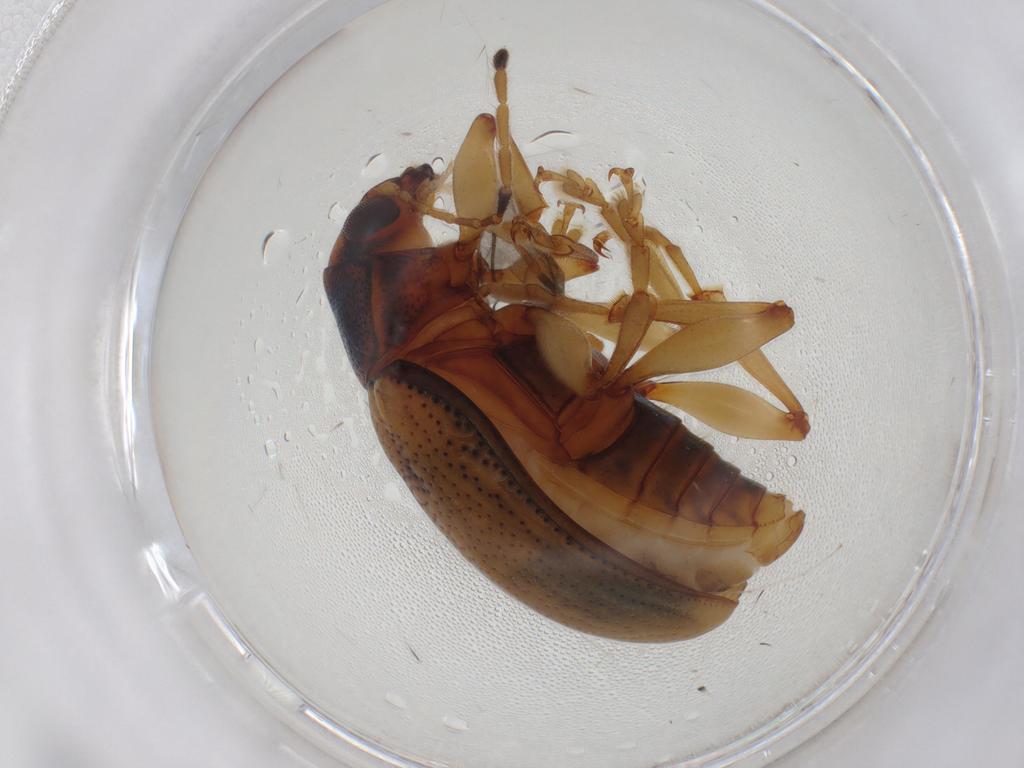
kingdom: Animalia
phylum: Arthropoda
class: Insecta
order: Coleoptera
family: Chrysomelidae
